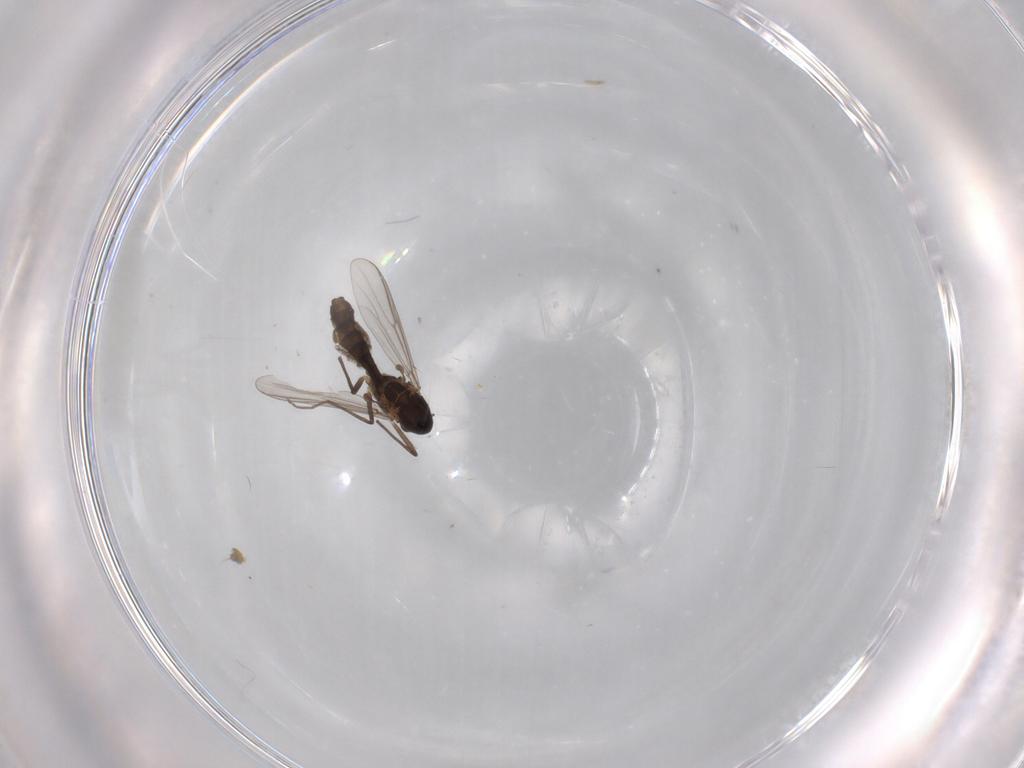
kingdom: Animalia
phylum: Arthropoda
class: Insecta
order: Diptera
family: Chironomidae
